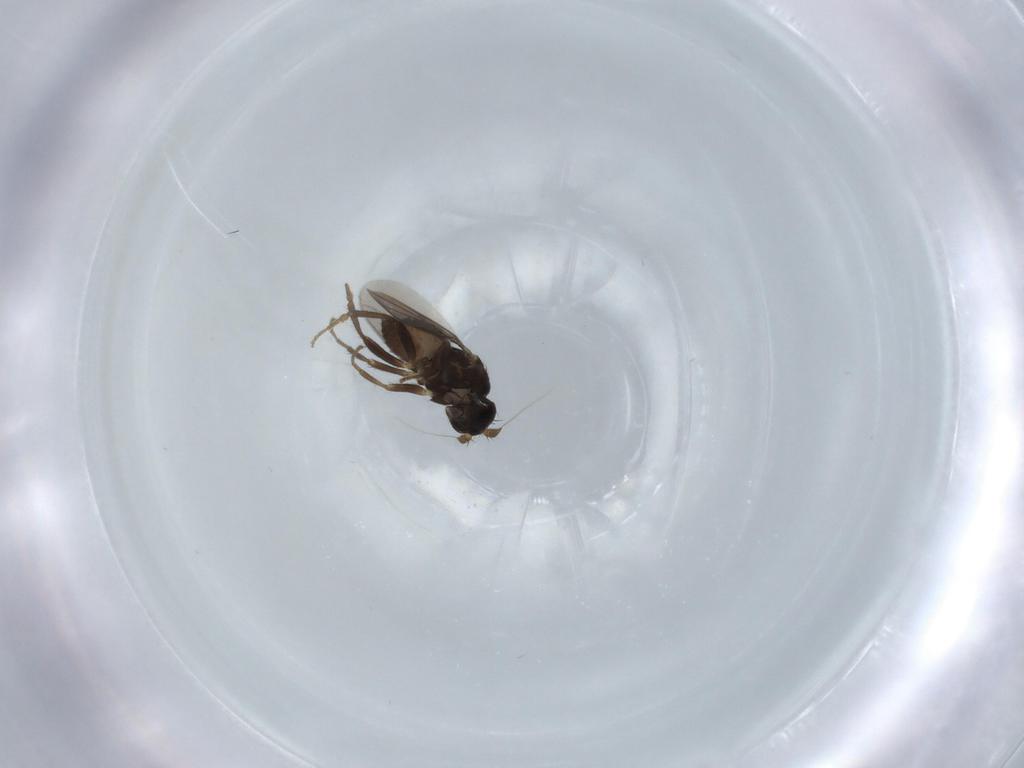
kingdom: Animalia
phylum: Arthropoda
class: Insecta
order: Diptera
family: Sphaeroceridae
